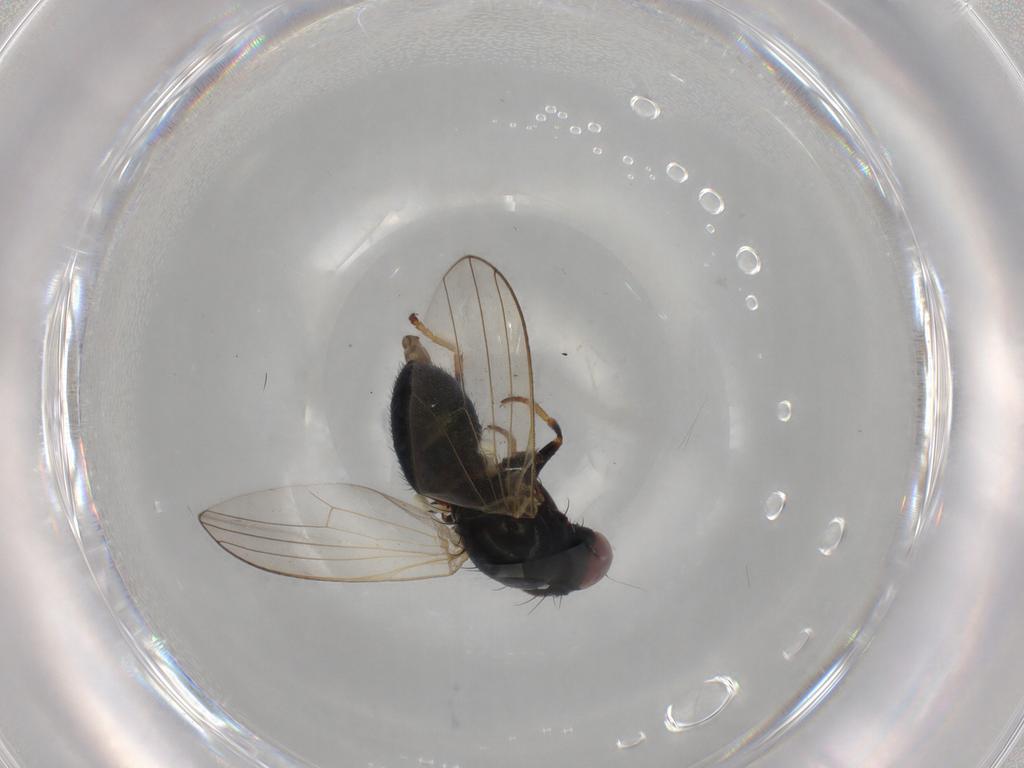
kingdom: Animalia
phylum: Arthropoda
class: Insecta
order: Diptera
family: Chamaemyiidae
